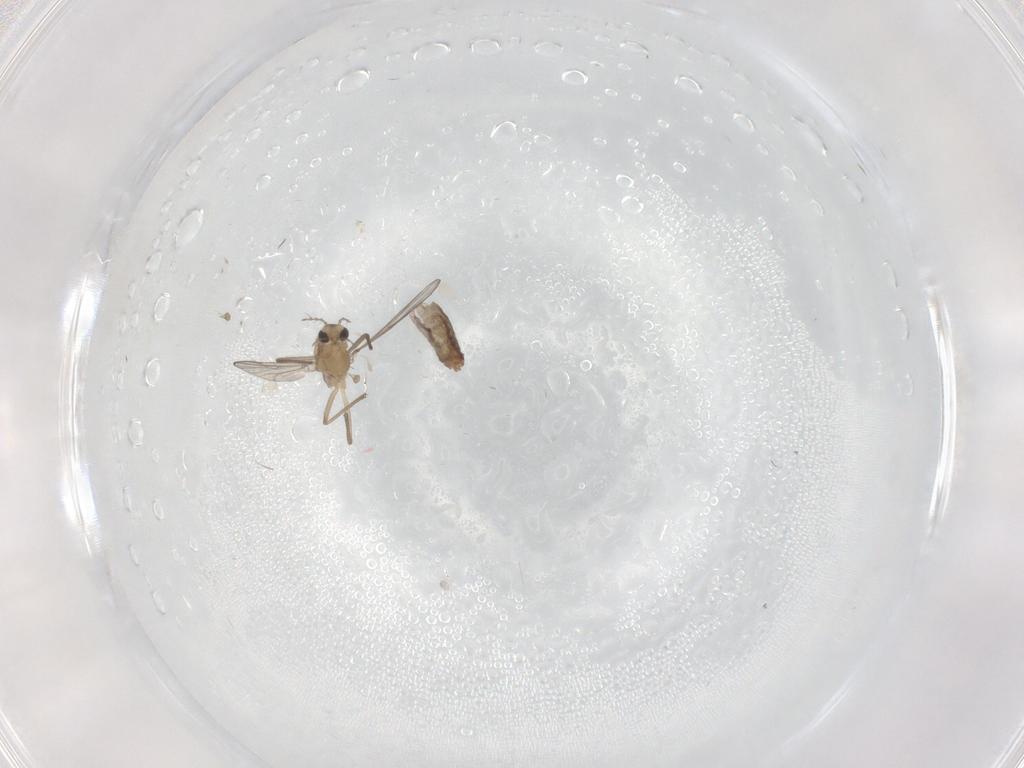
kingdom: Animalia
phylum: Arthropoda
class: Insecta
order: Diptera
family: Chironomidae
